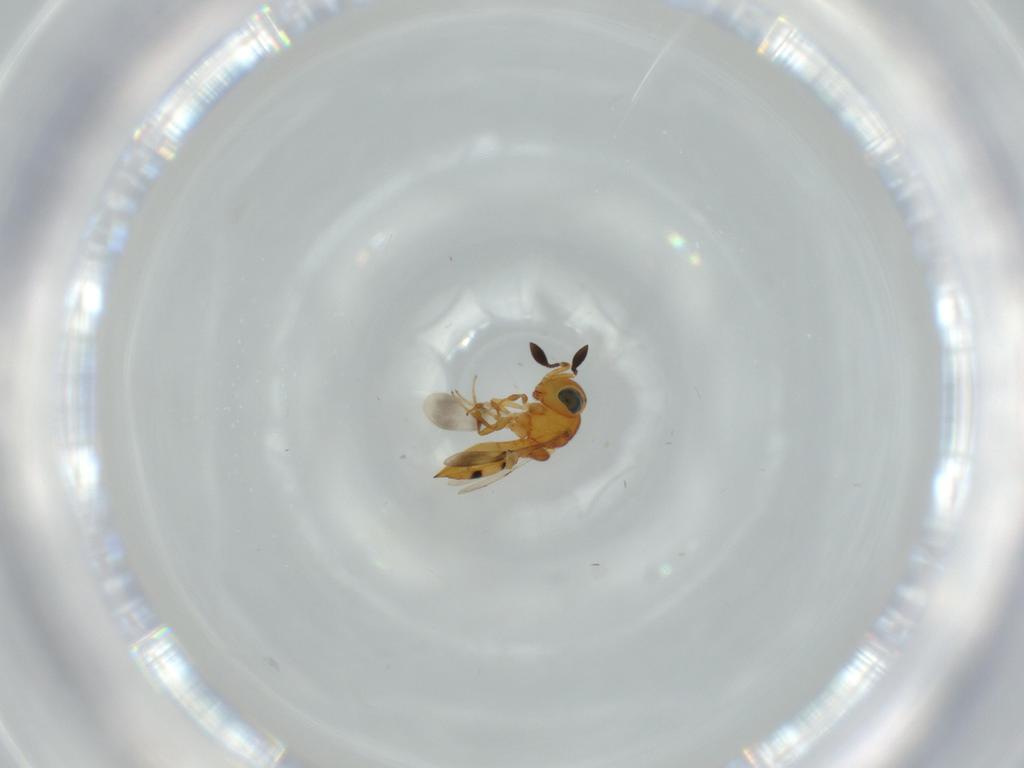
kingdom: Animalia
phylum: Arthropoda
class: Insecta
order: Hymenoptera
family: Scelionidae
